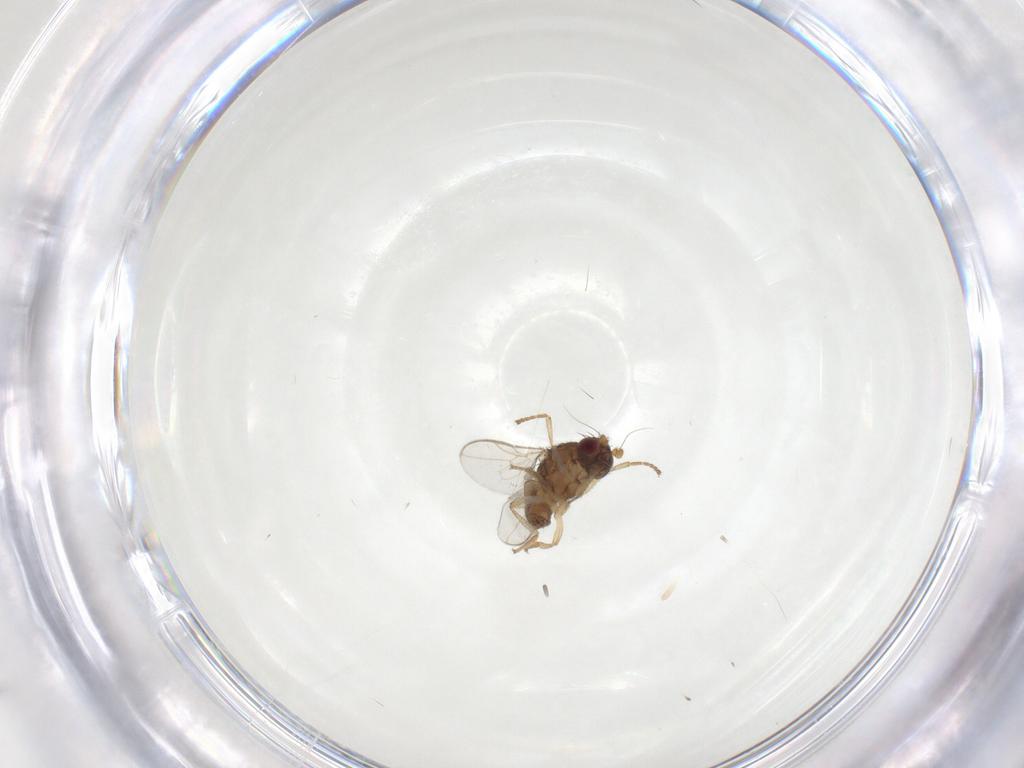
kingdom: Animalia
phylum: Arthropoda
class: Insecta
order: Diptera
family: Sphaeroceridae
